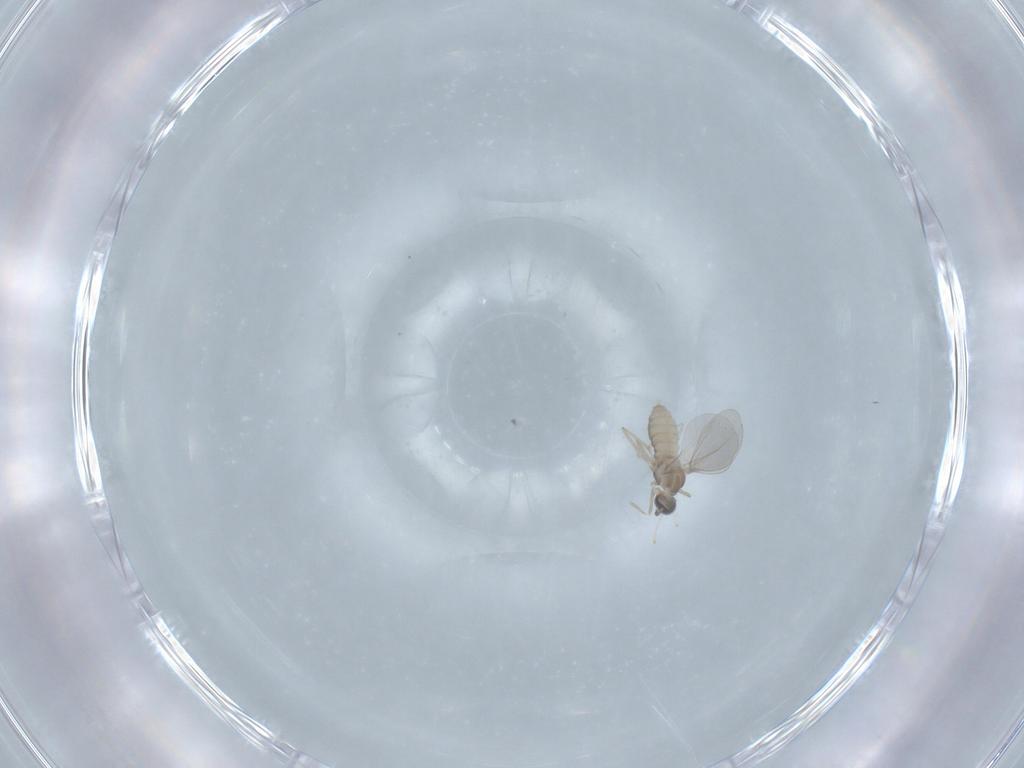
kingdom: Animalia
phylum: Arthropoda
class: Insecta
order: Diptera
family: Cecidomyiidae
